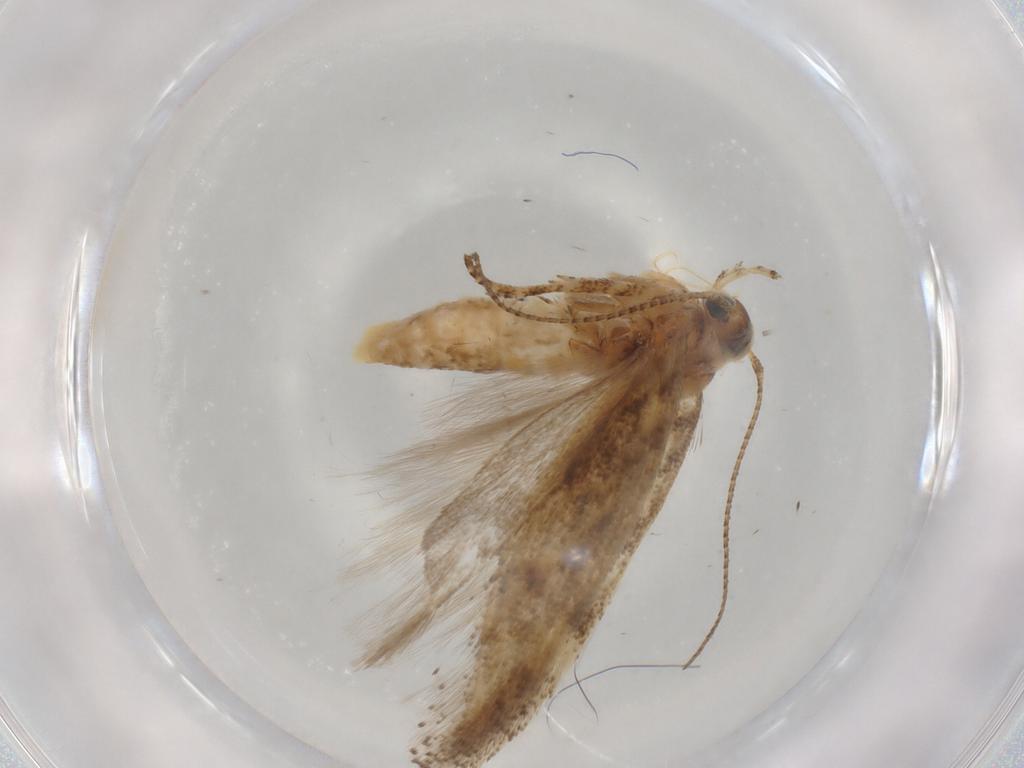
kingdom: Animalia
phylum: Arthropoda
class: Insecta
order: Lepidoptera
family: Gelechiidae
